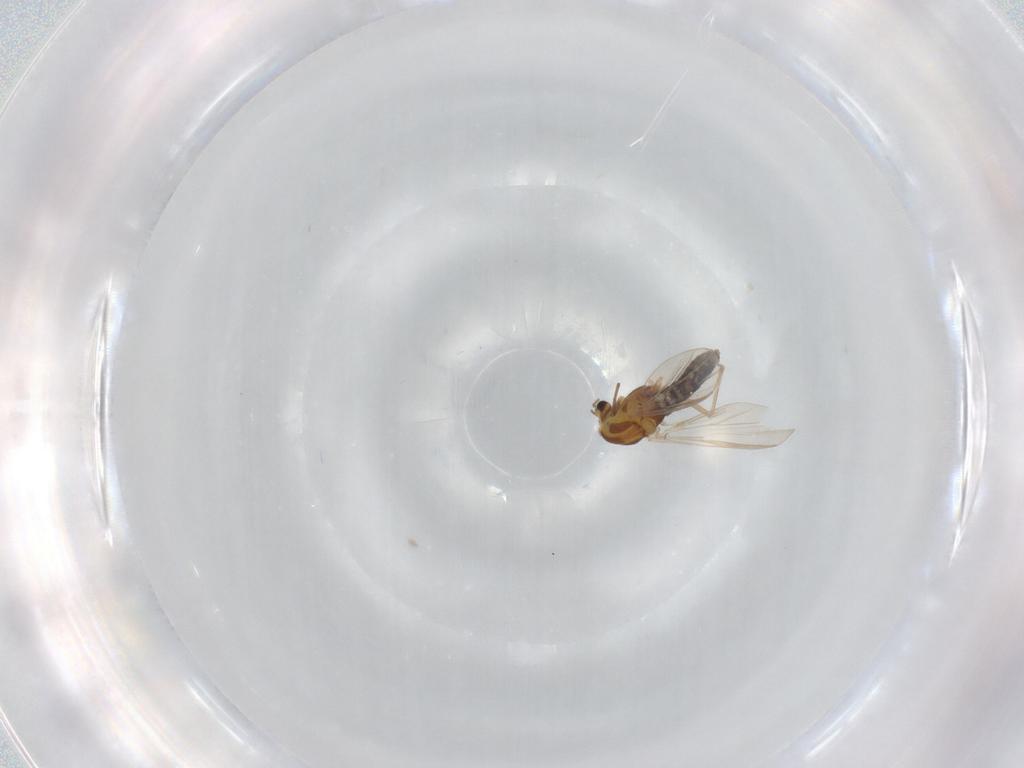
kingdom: Animalia
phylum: Arthropoda
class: Insecta
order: Diptera
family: Chironomidae
